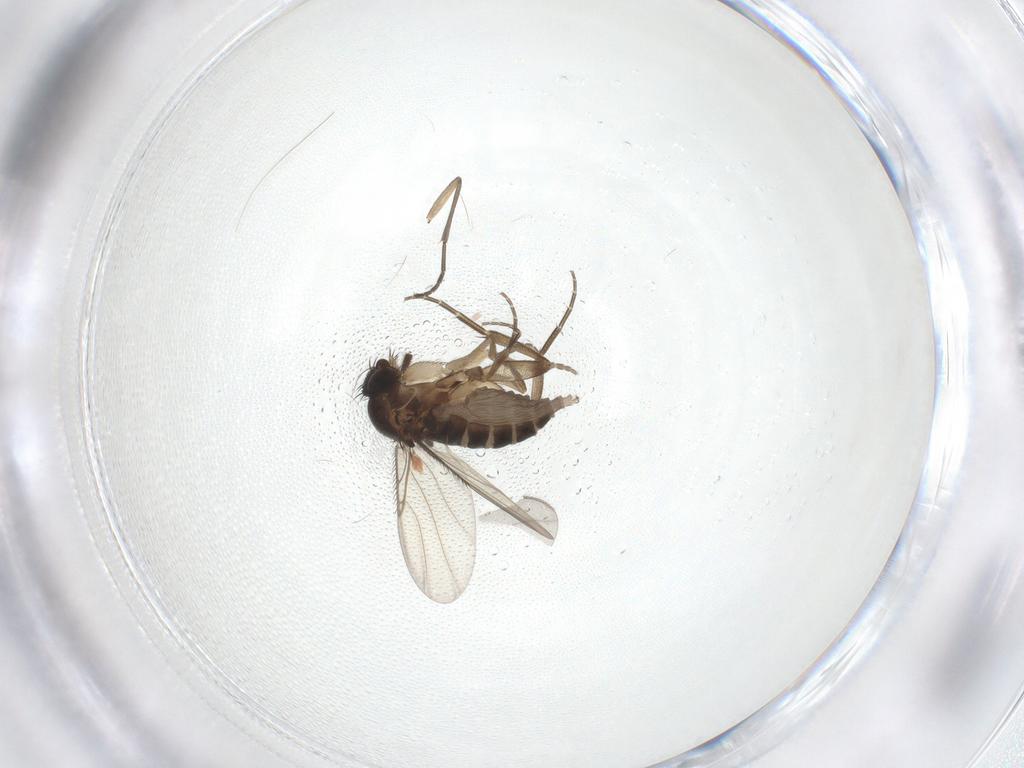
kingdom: Animalia
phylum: Arthropoda
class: Insecta
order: Diptera
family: Phoridae
